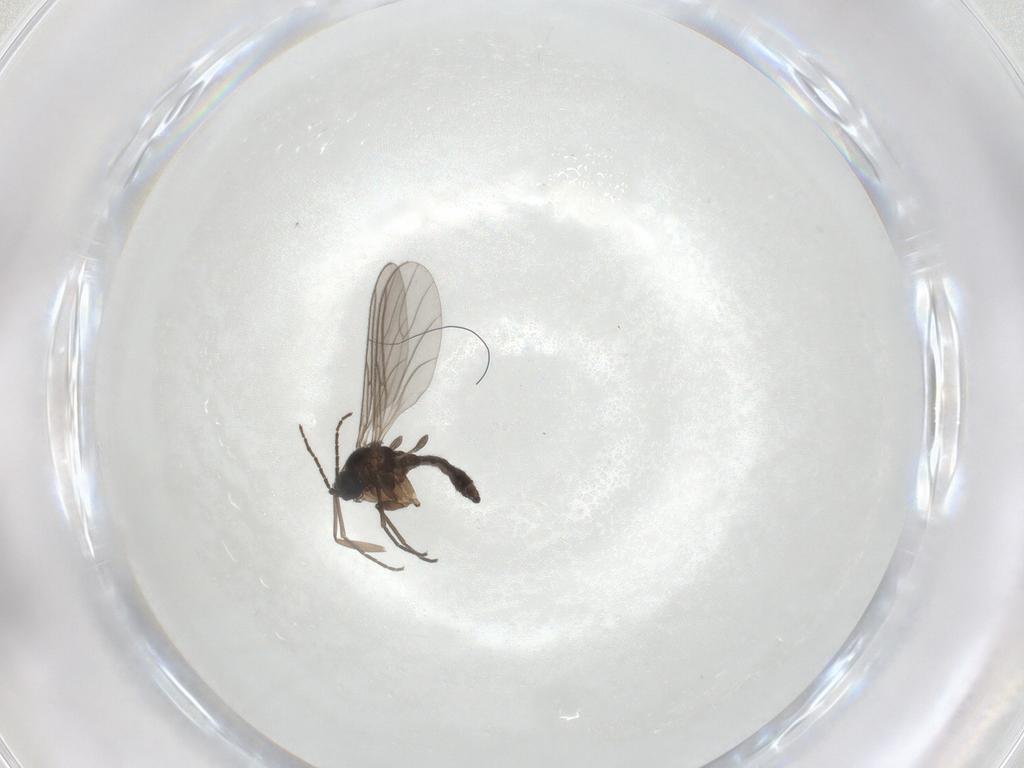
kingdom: Animalia
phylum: Arthropoda
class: Insecta
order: Diptera
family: Sciaridae
